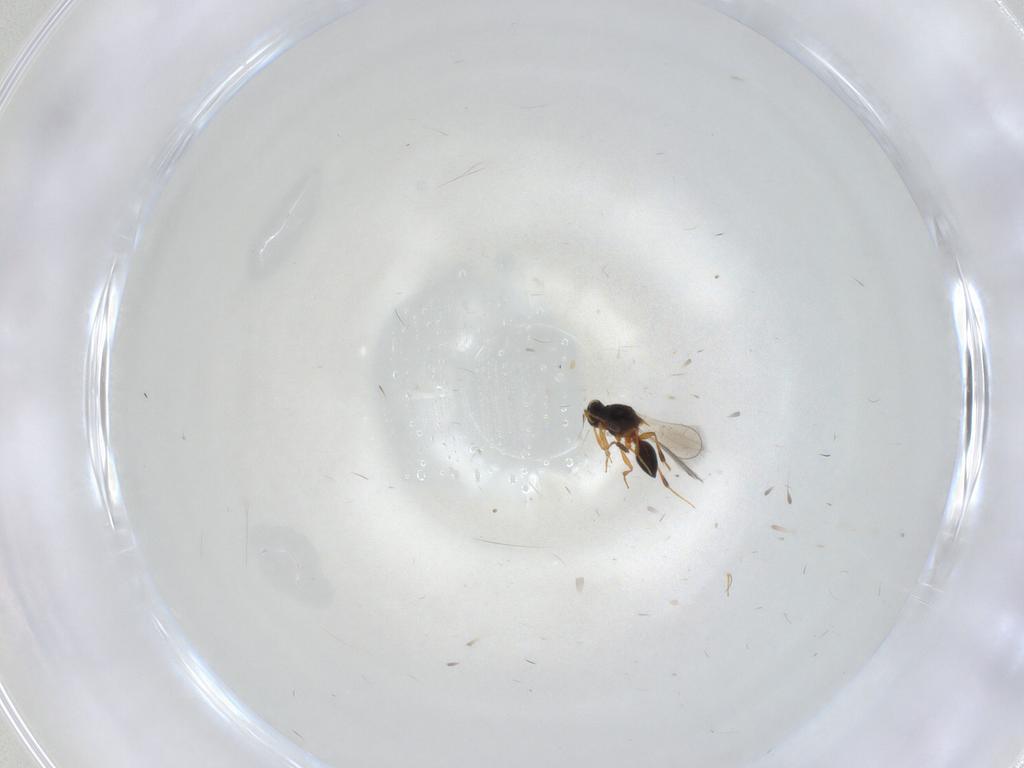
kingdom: Animalia
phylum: Arthropoda
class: Insecta
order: Hymenoptera
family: Platygastridae
